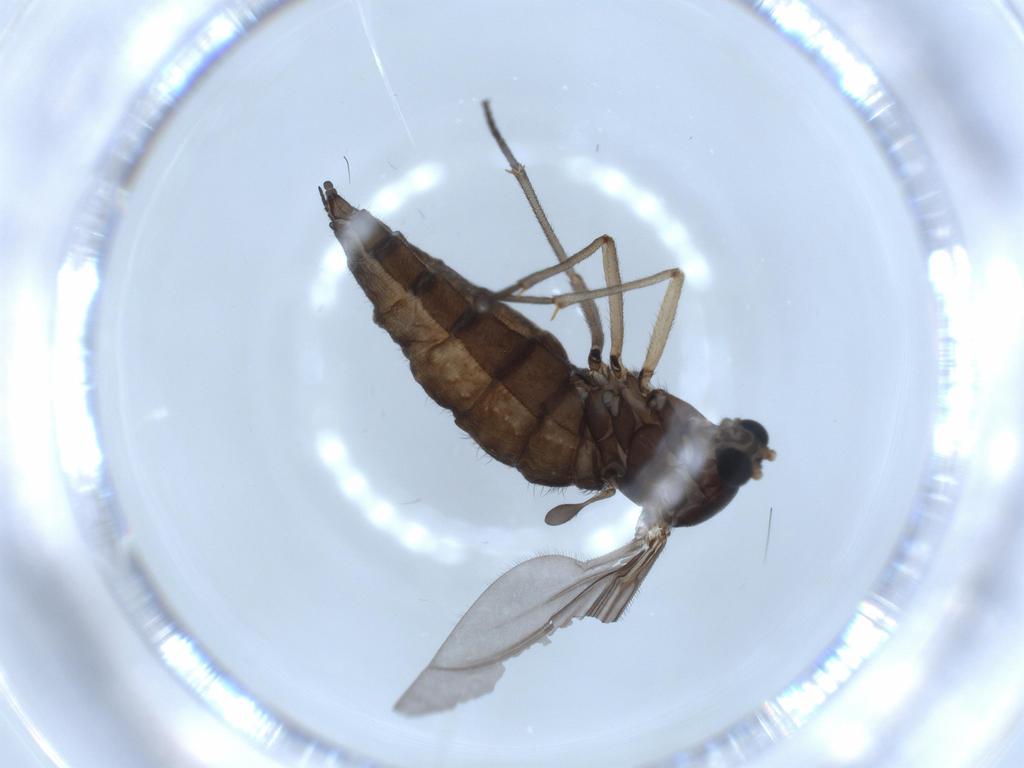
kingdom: Animalia
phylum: Arthropoda
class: Insecta
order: Diptera
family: Sciaridae
